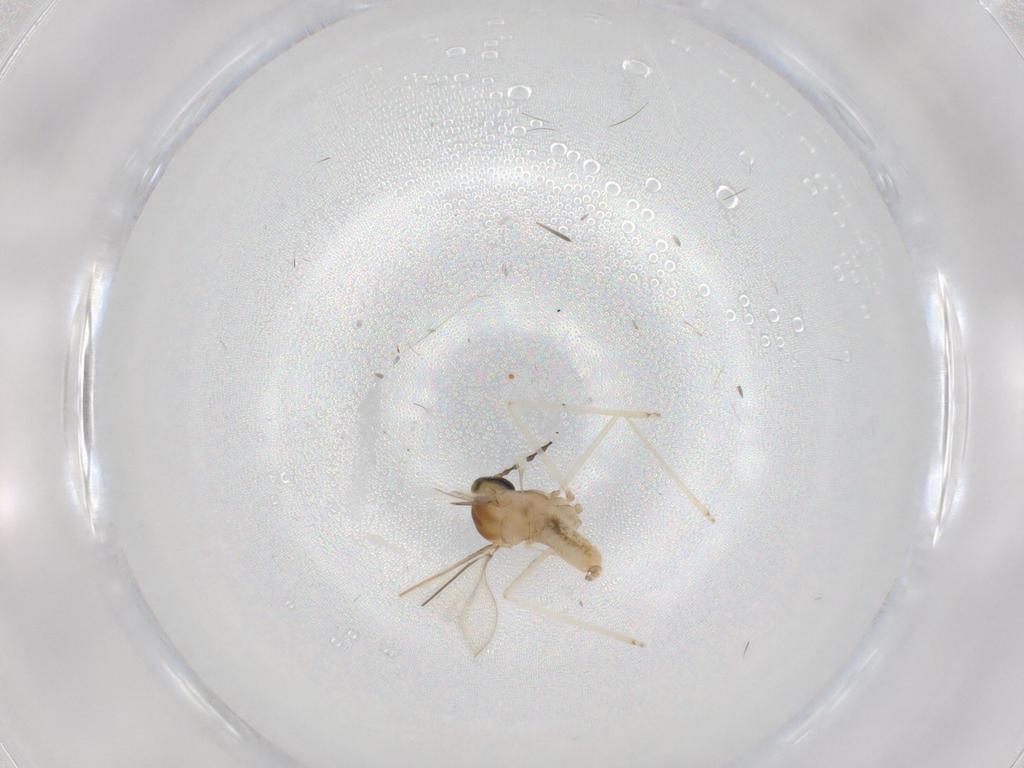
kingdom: Animalia
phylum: Arthropoda
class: Insecta
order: Diptera
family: Cecidomyiidae
